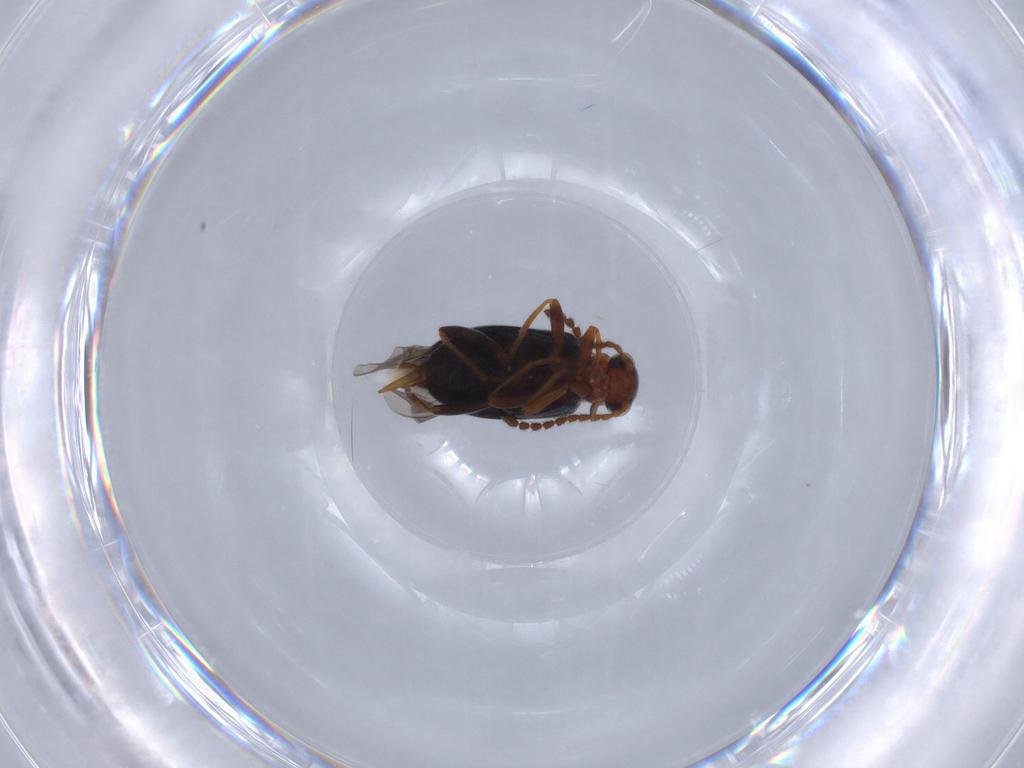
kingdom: Animalia
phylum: Arthropoda
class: Insecta
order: Coleoptera
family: Aderidae
